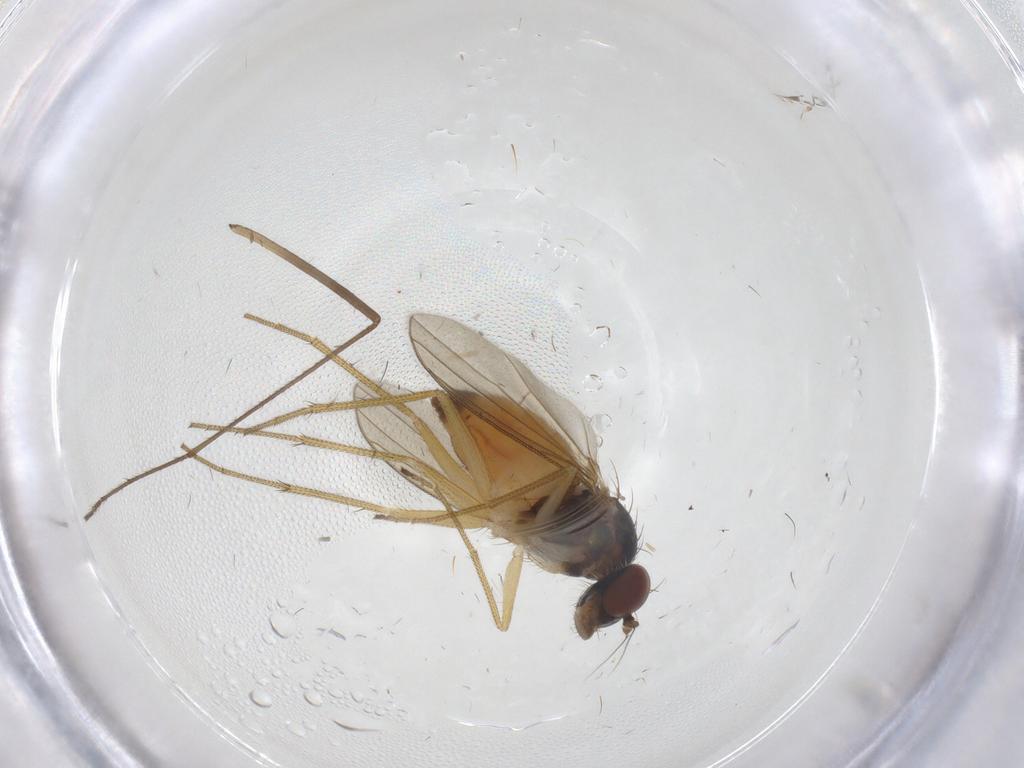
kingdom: Animalia
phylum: Arthropoda
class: Insecta
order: Diptera
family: Dolichopodidae
